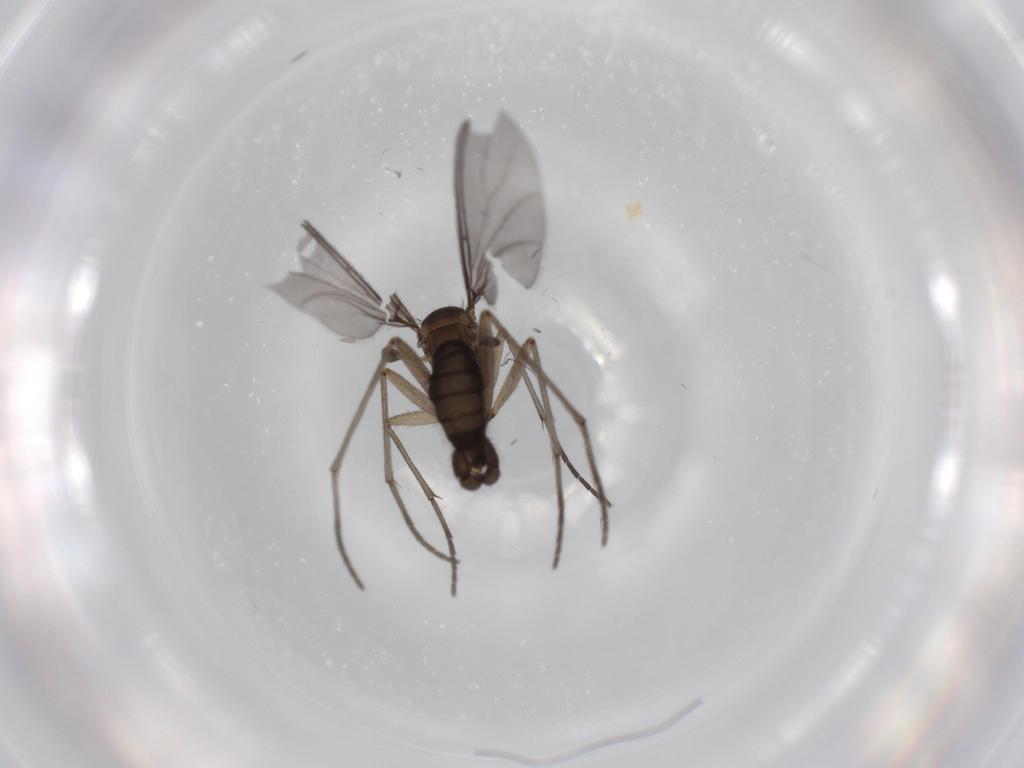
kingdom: Animalia
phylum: Arthropoda
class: Insecta
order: Diptera
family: Sciaridae
